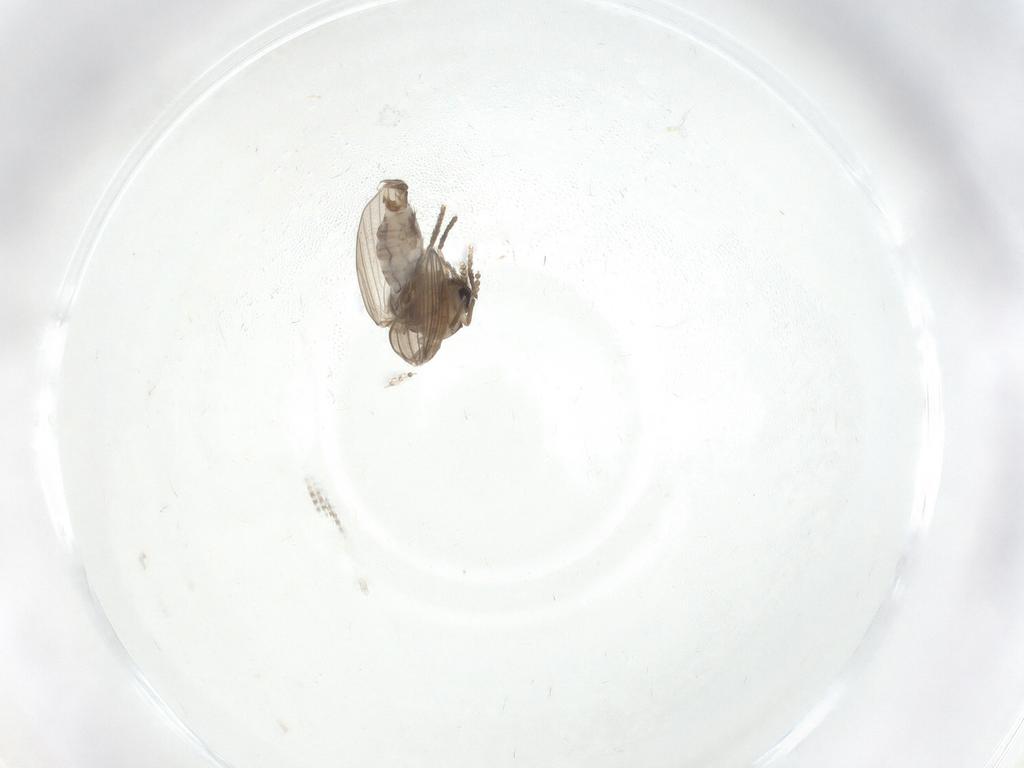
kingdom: Animalia
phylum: Arthropoda
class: Insecta
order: Diptera
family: Psychodidae
